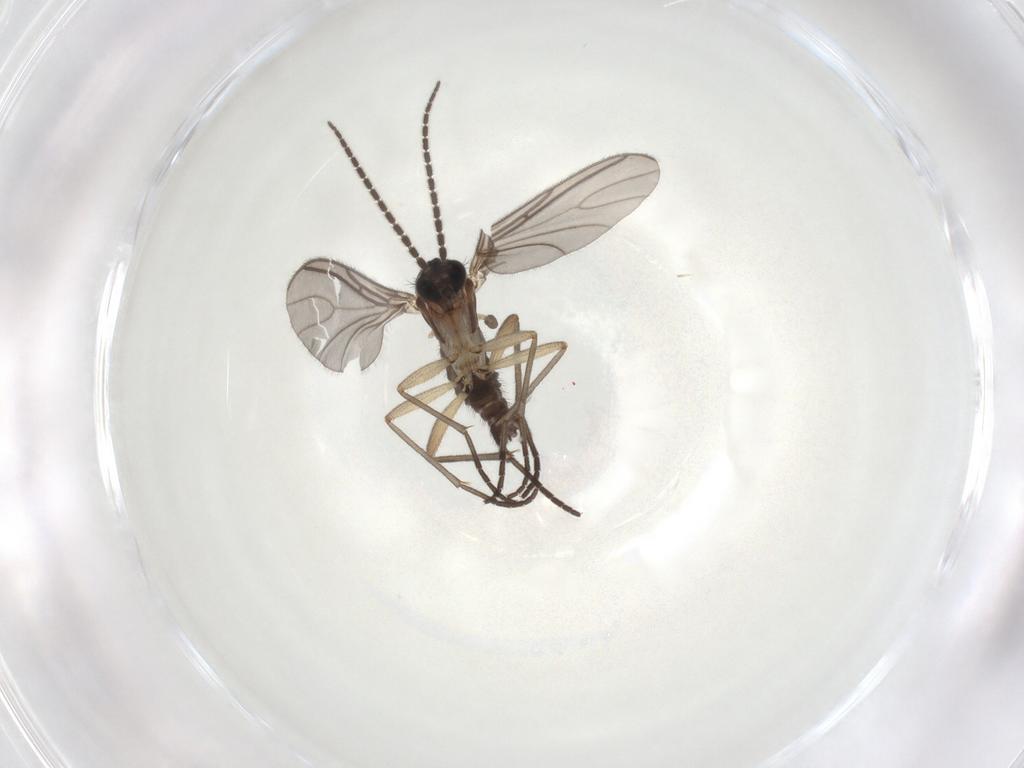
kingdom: Animalia
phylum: Arthropoda
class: Insecta
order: Diptera
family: Phoridae
